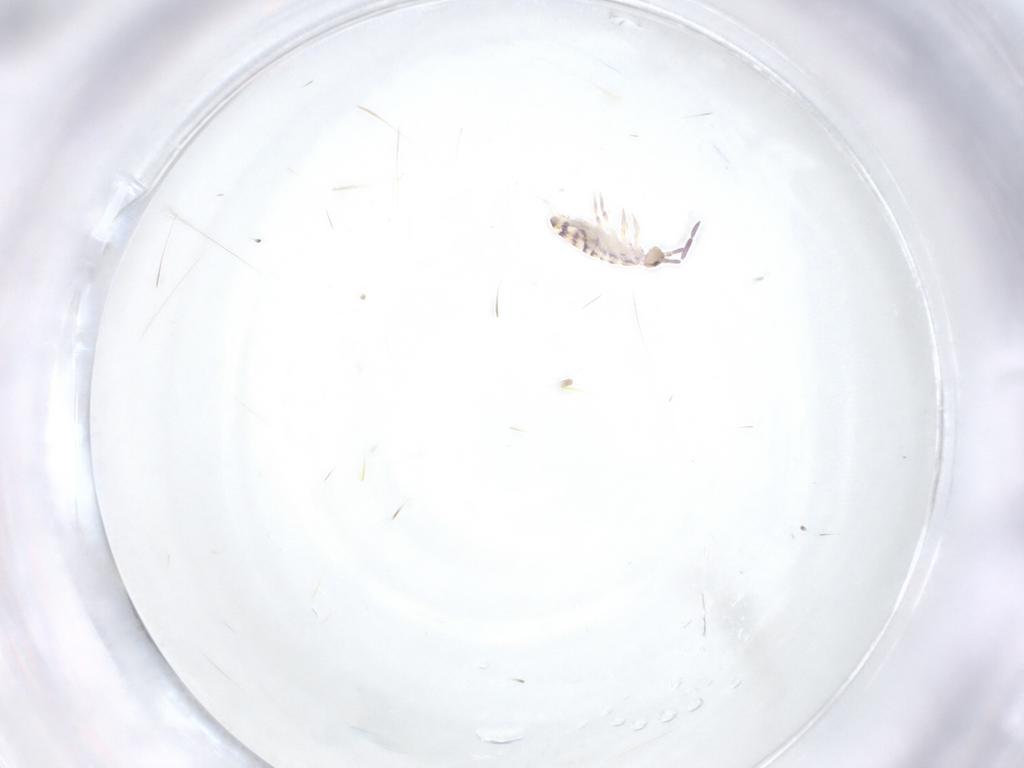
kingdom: Animalia
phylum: Arthropoda
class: Collembola
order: Entomobryomorpha
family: Entomobryidae
